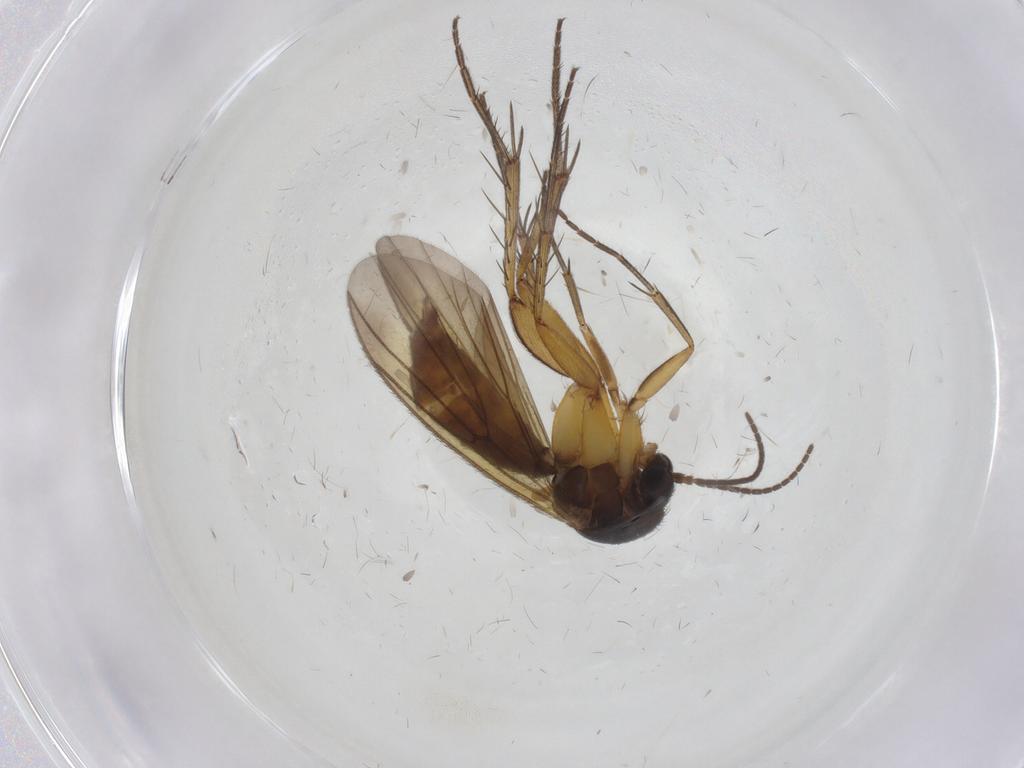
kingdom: Animalia
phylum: Arthropoda
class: Insecta
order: Diptera
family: Mycetophilidae
